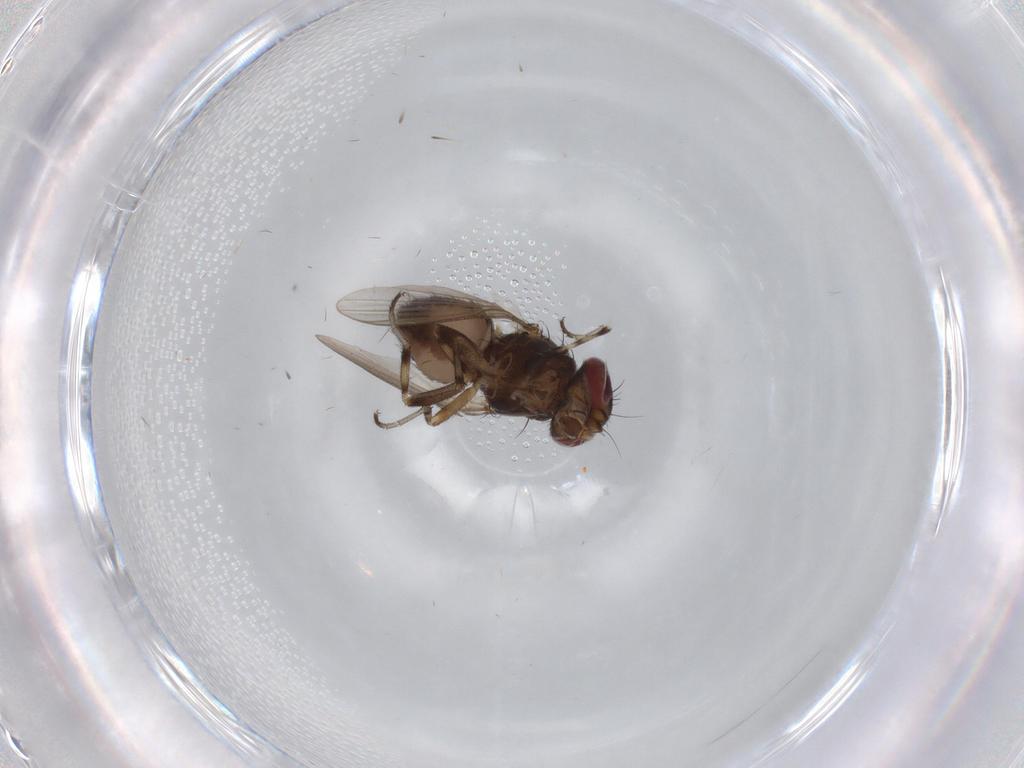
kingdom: Animalia
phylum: Arthropoda
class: Insecta
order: Diptera
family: Heleomyzidae
